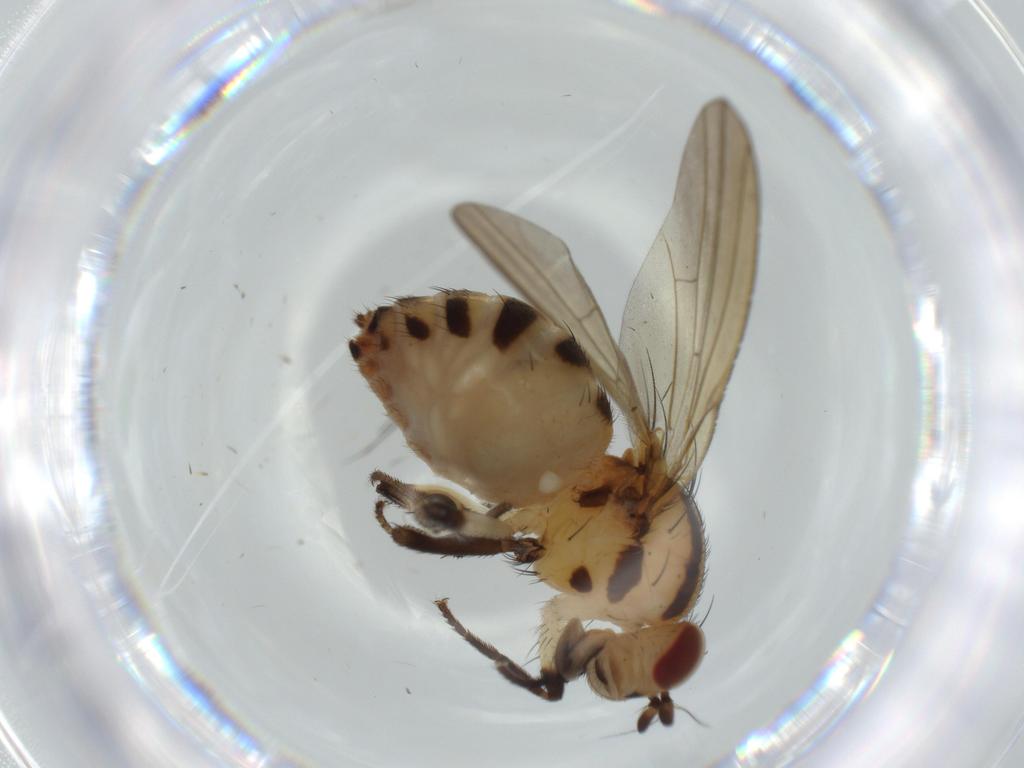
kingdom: Animalia
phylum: Arthropoda
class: Insecta
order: Diptera
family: Lauxaniidae
